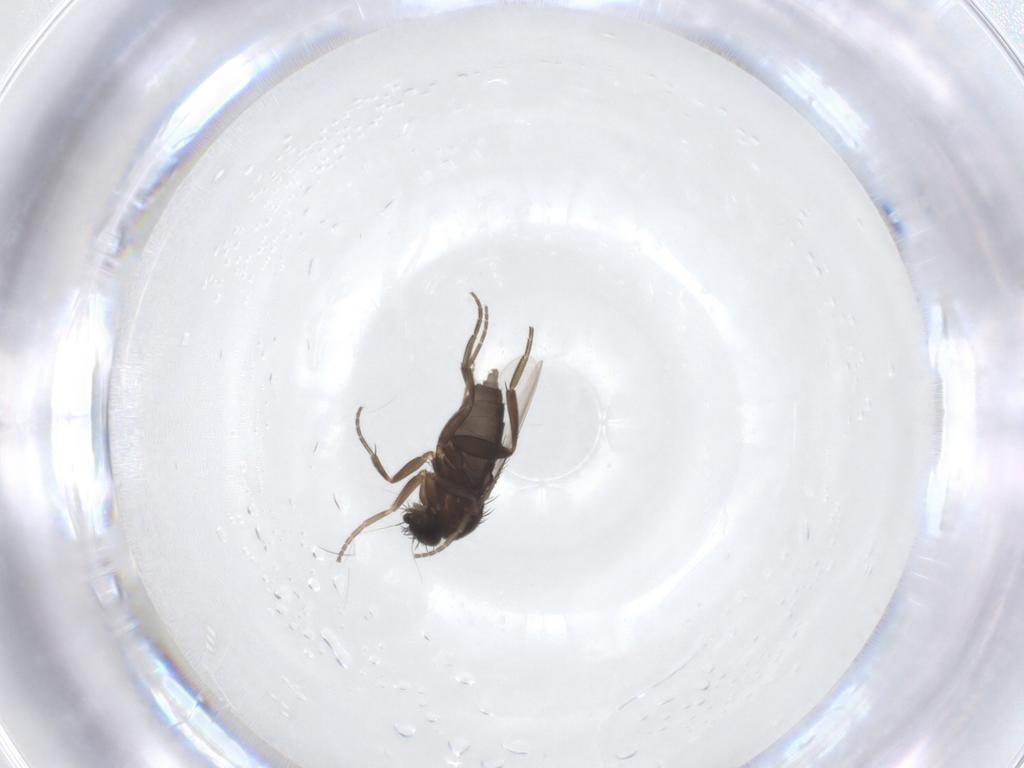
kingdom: Animalia
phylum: Arthropoda
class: Insecta
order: Diptera
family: Phoridae
